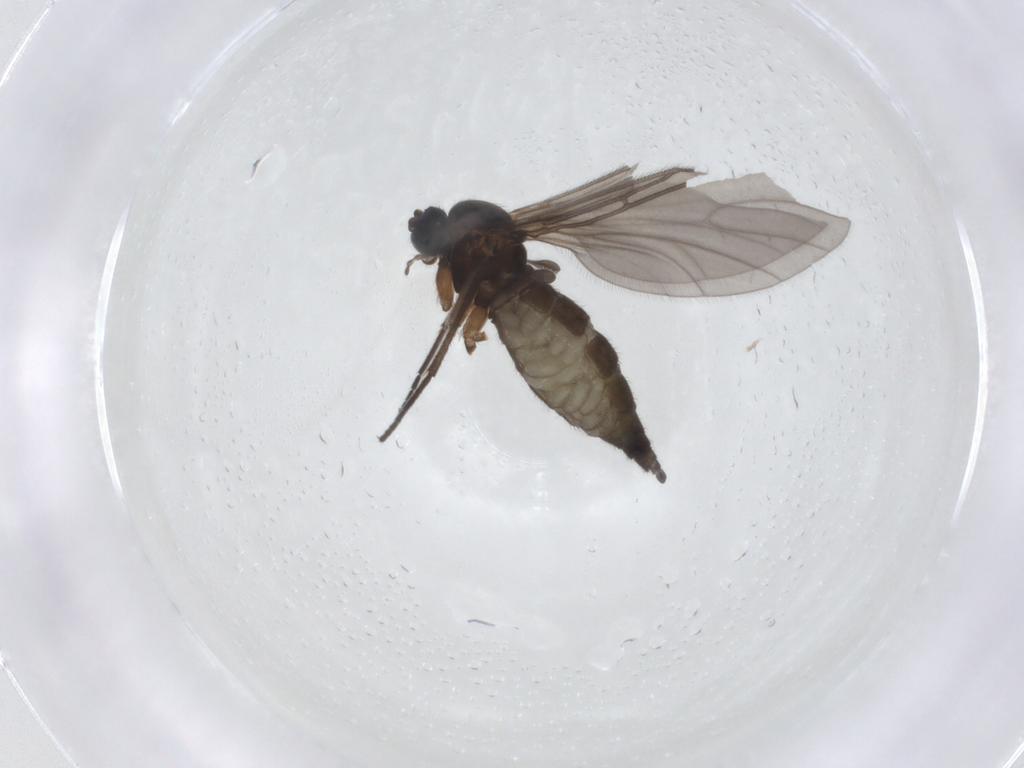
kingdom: Animalia
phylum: Arthropoda
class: Insecta
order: Diptera
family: Sciaridae
